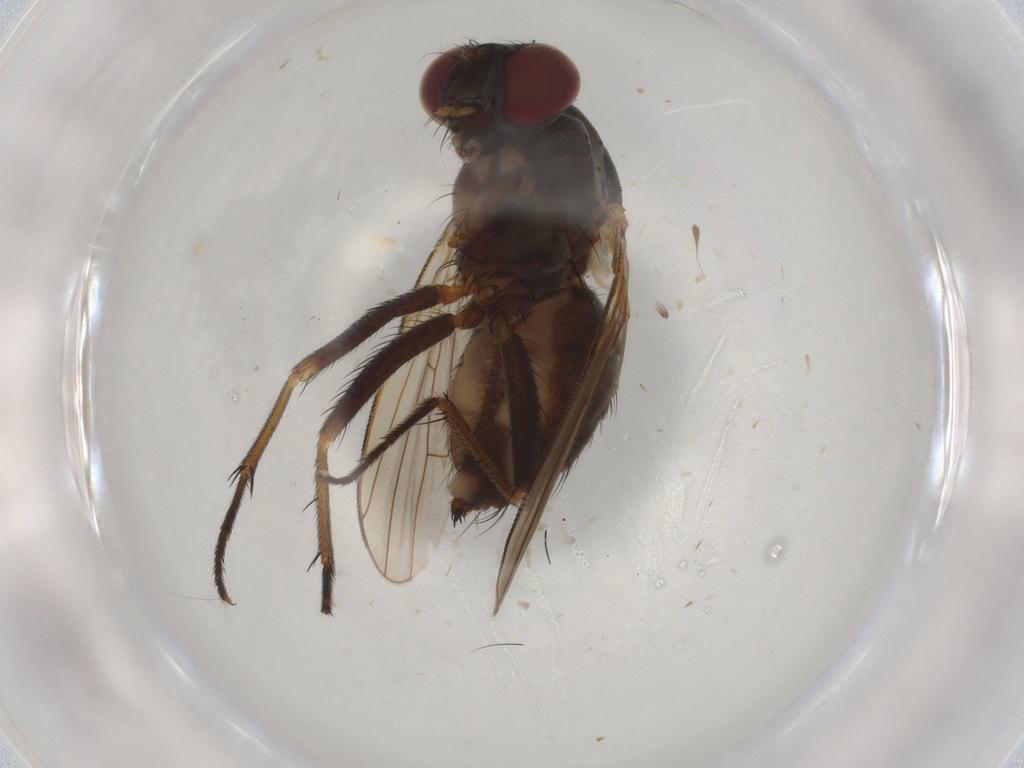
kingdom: Animalia
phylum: Arthropoda
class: Insecta
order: Diptera
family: Muscidae
